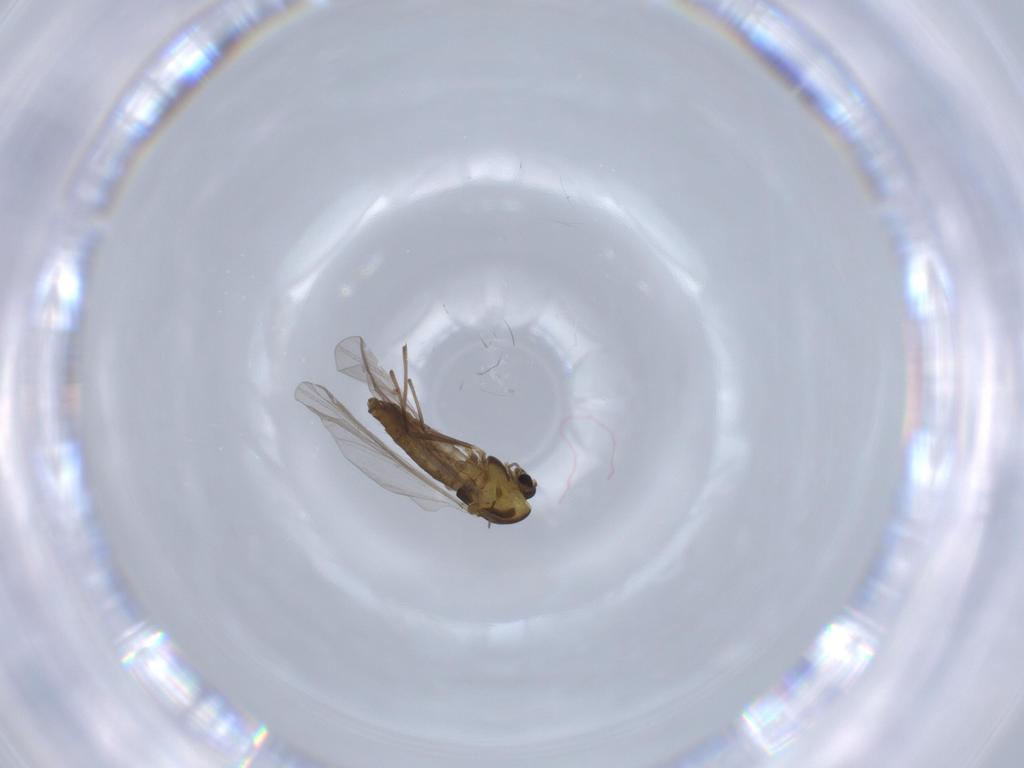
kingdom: Animalia
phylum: Arthropoda
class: Insecta
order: Diptera
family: Chironomidae
